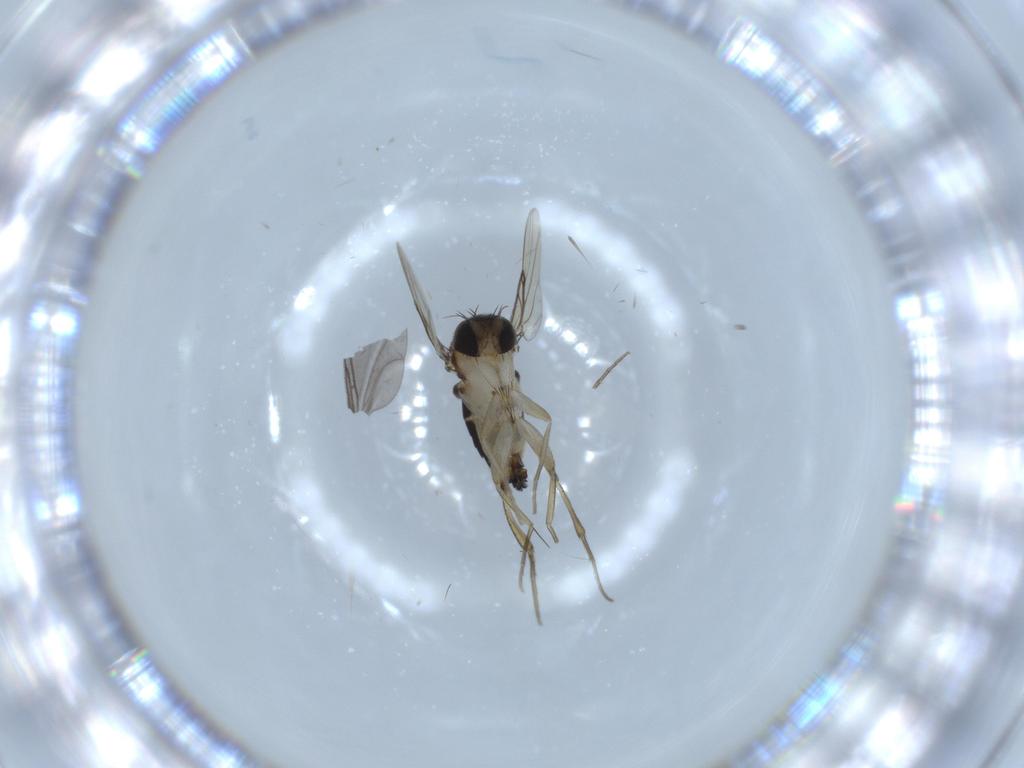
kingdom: Animalia
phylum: Arthropoda
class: Insecta
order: Diptera
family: Phoridae
